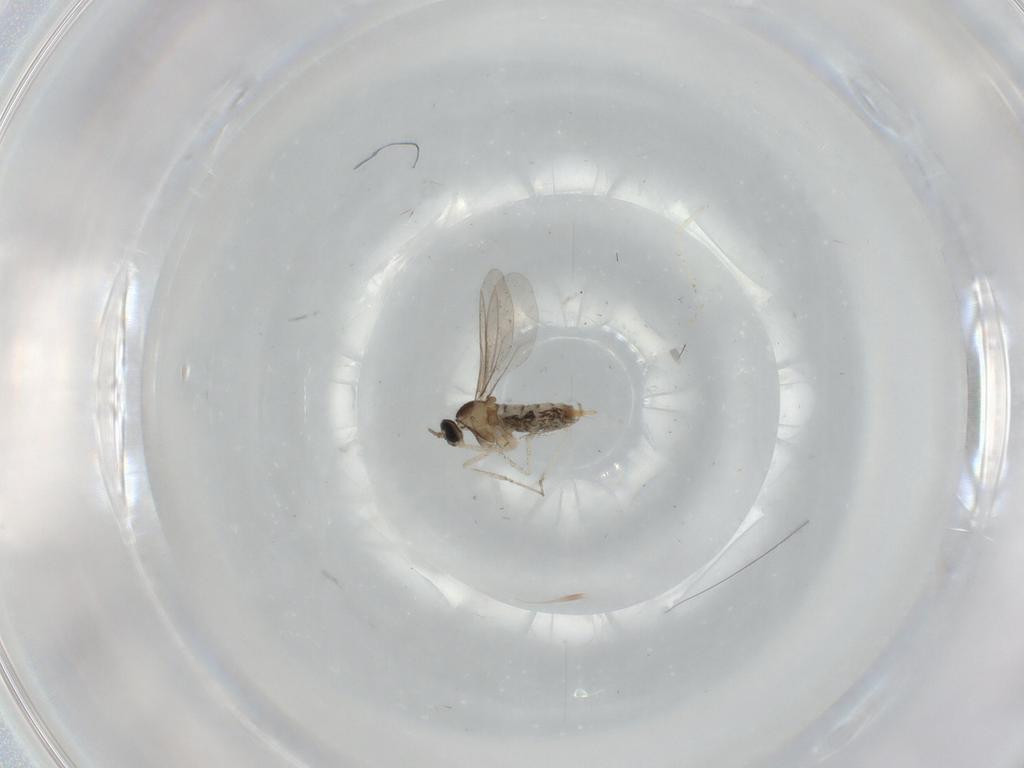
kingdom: Animalia
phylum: Arthropoda
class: Insecta
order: Diptera
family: Cecidomyiidae
